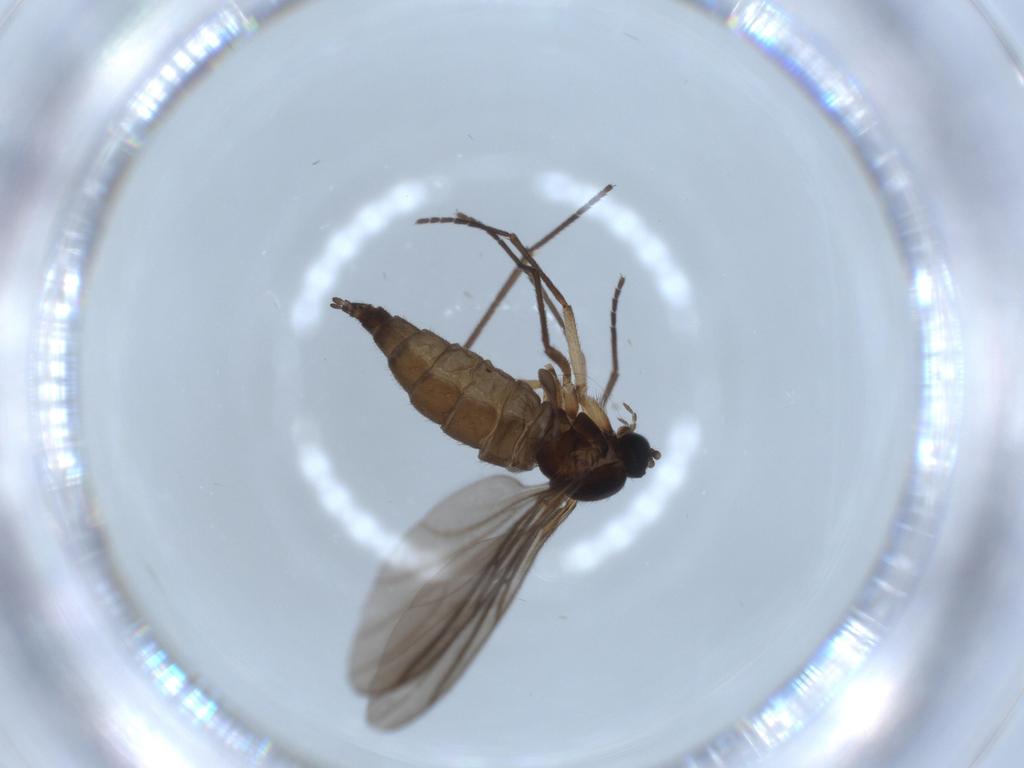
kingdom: Animalia
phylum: Arthropoda
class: Insecta
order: Diptera
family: Sciaridae
